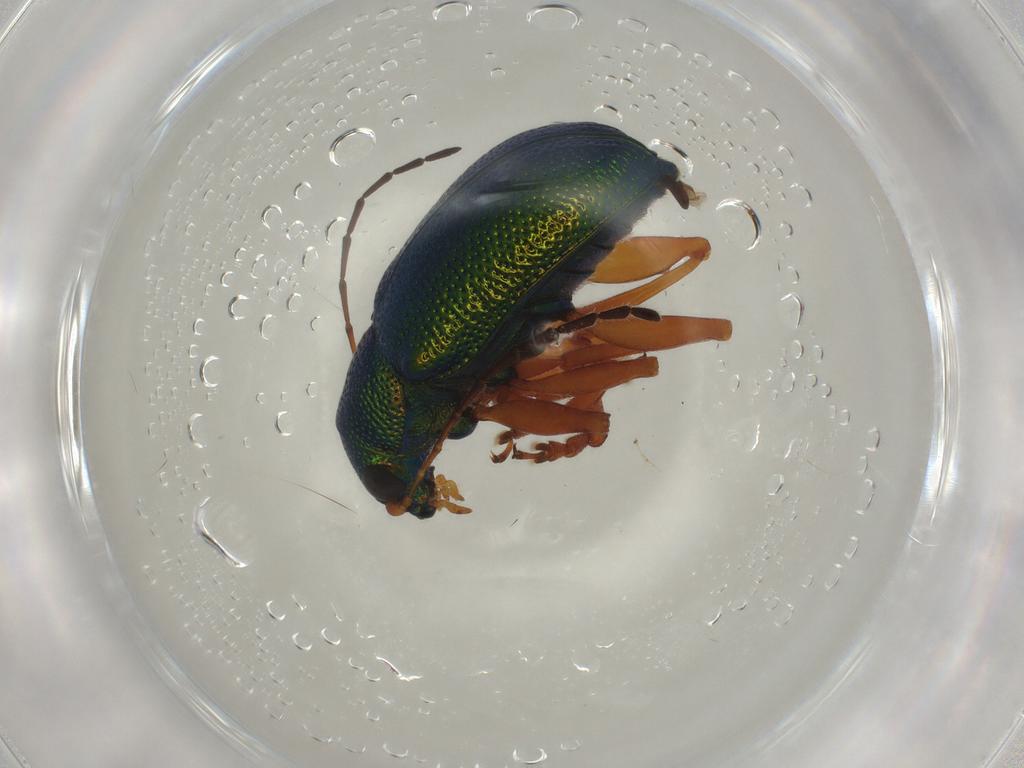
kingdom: Animalia
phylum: Arthropoda
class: Insecta
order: Coleoptera
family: Chrysomelidae
